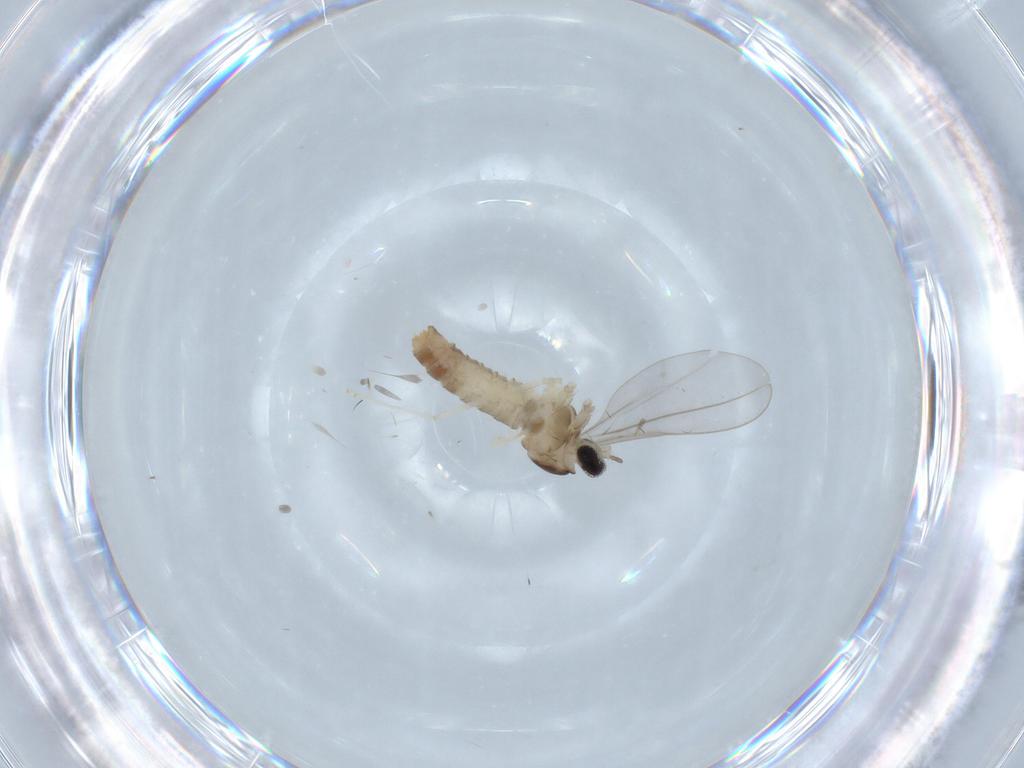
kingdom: Animalia
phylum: Arthropoda
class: Insecta
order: Diptera
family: Cecidomyiidae
